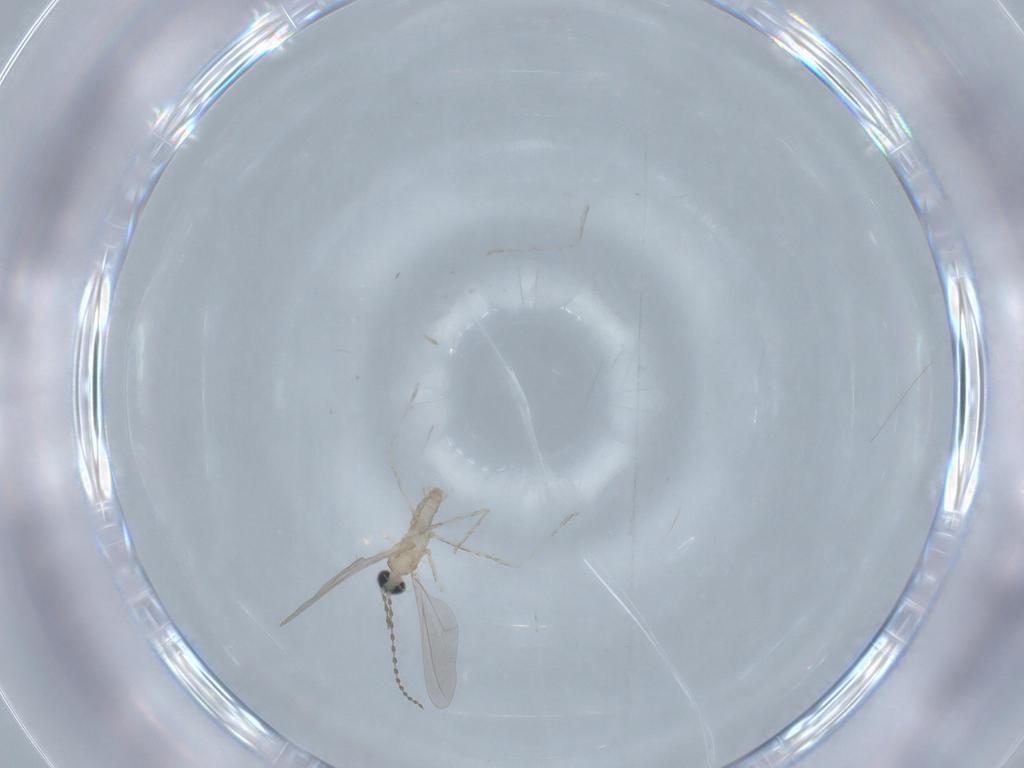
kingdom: Animalia
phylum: Arthropoda
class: Insecta
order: Diptera
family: Cecidomyiidae
